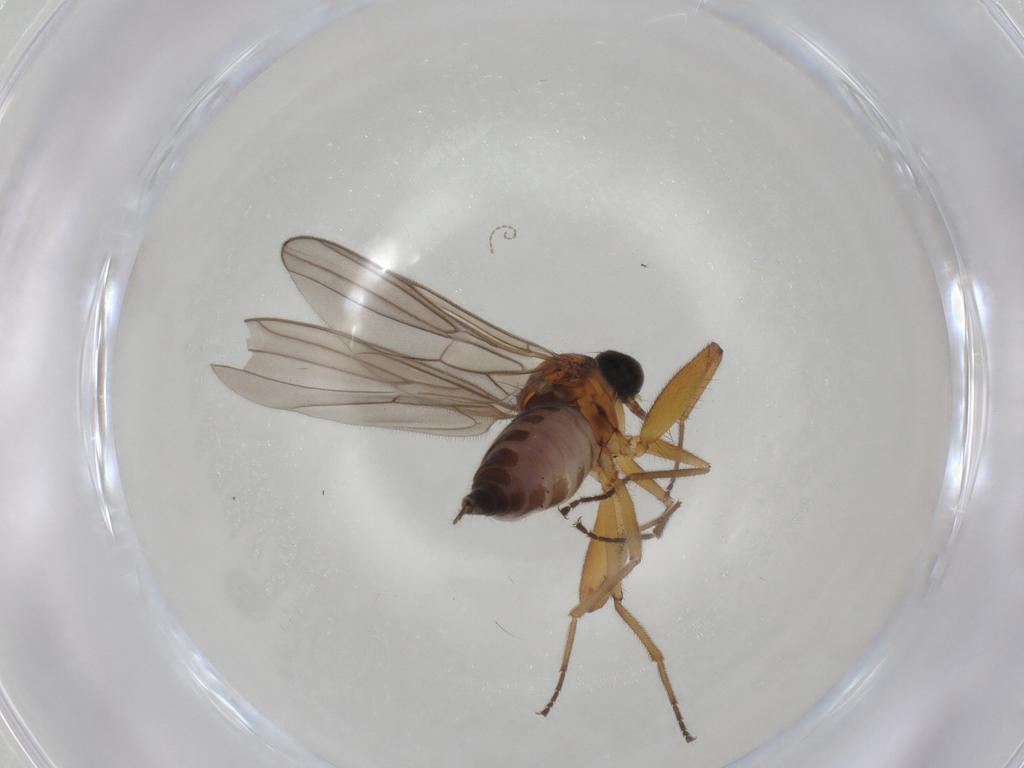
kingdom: Animalia
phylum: Arthropoda
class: Insecta
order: Diptera
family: Hybotidae
